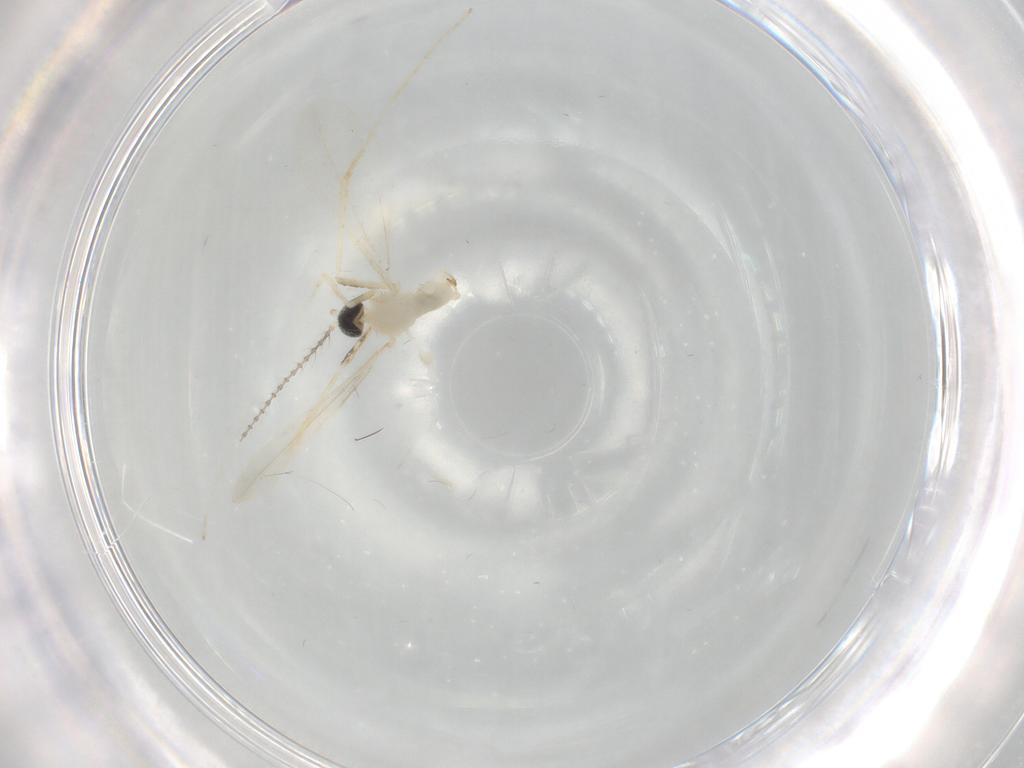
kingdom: Animalia
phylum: Arthropoda
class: Insecta
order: Diptera
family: Cecidomyiidae
